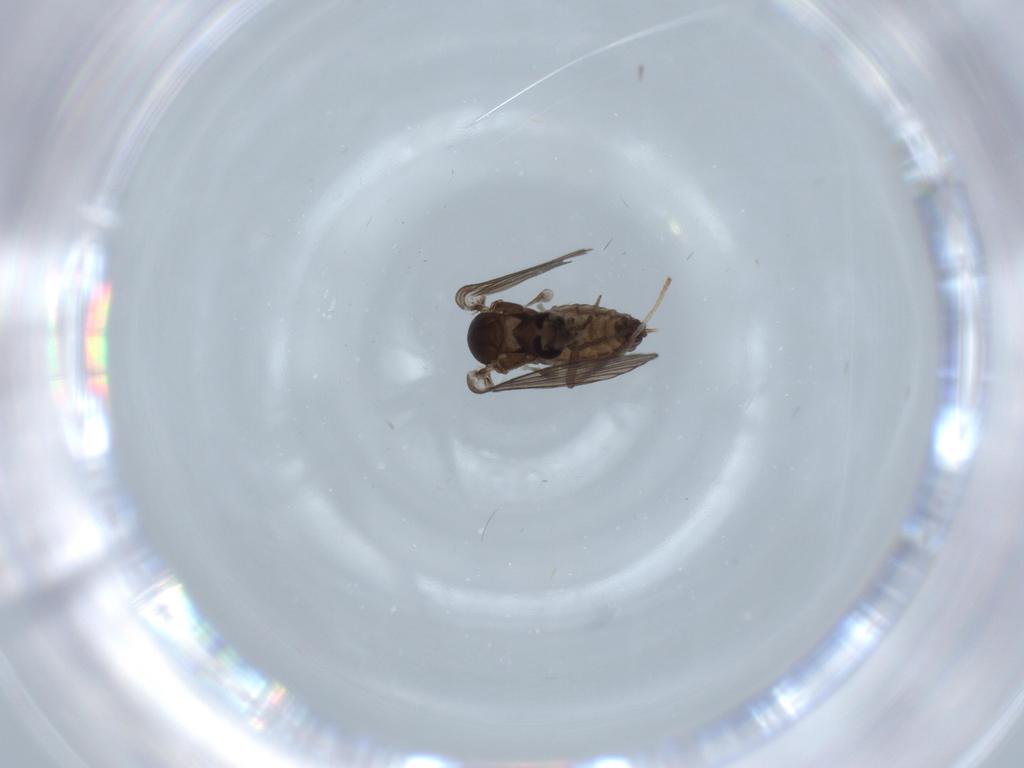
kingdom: Animalia
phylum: Arthropoda
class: Insecta
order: Diptera
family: Psychodidae
